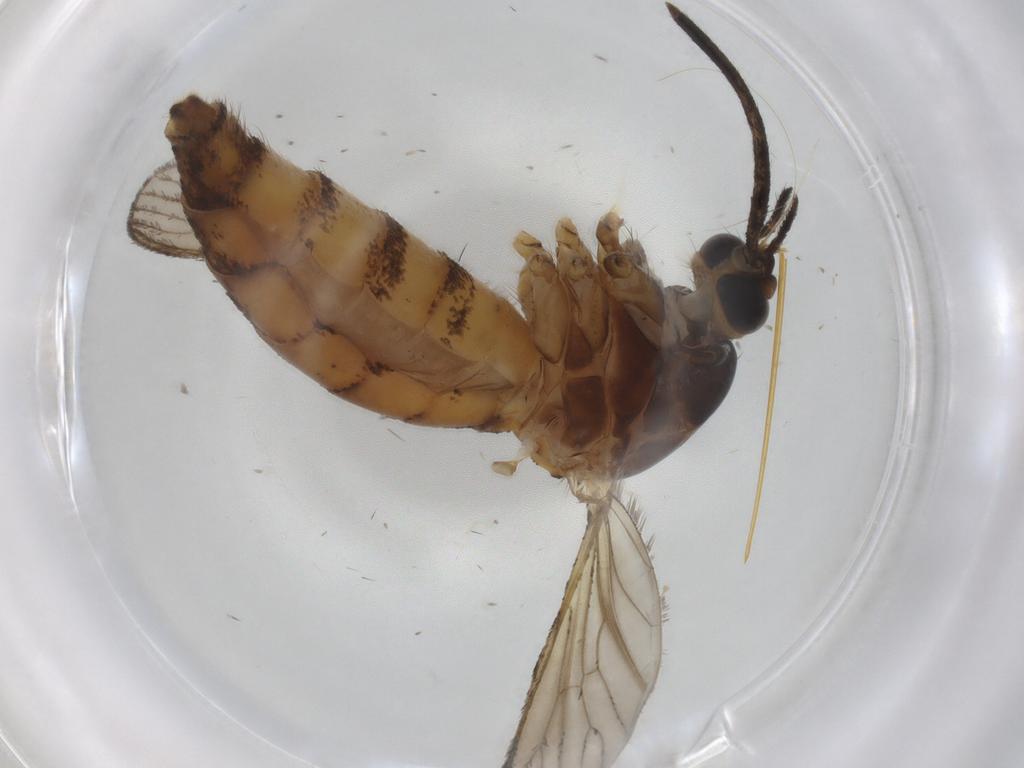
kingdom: Animalia
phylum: Arthropoda
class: Insecta
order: Diptera
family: Culicidae
